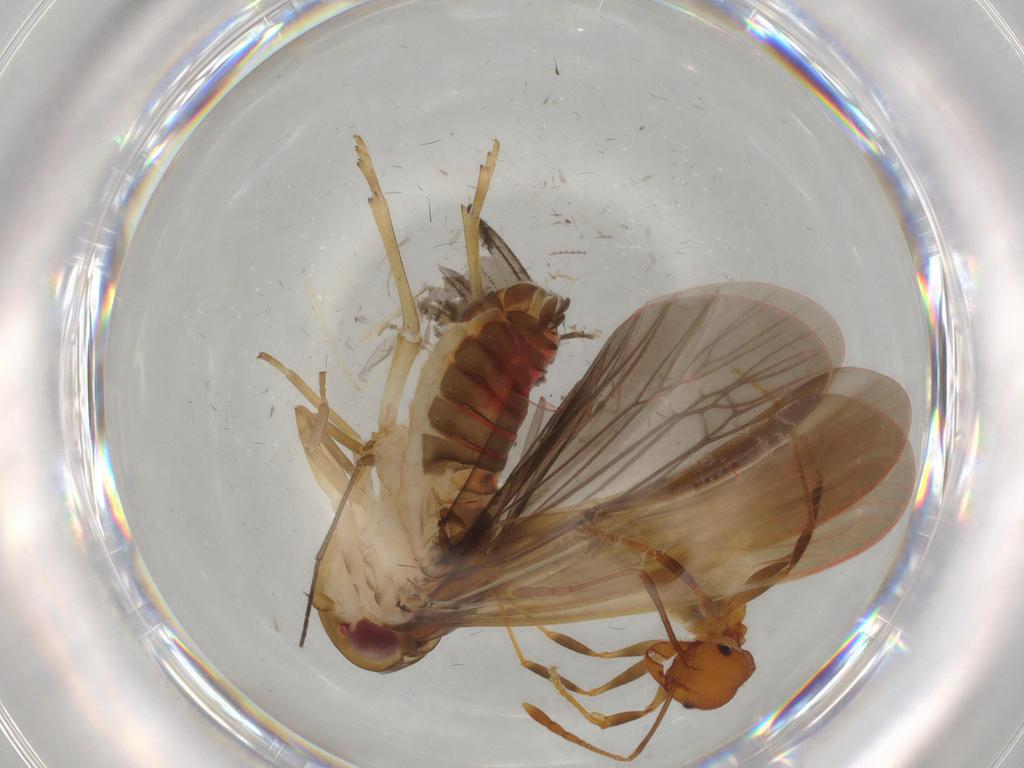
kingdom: Animalia
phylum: Arthropoda
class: Insecta
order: Hymenoptera
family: Formicidae
